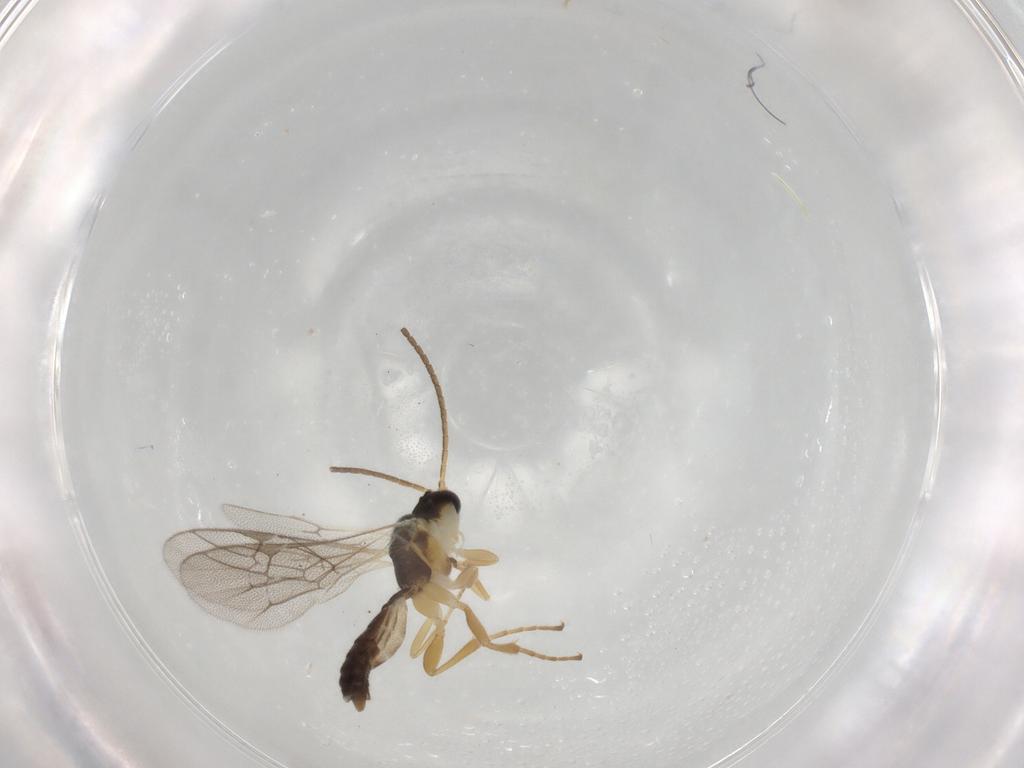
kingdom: Animalia
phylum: Arthropoda
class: Insecta
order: Hymenoptera
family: Ichneumonidae
